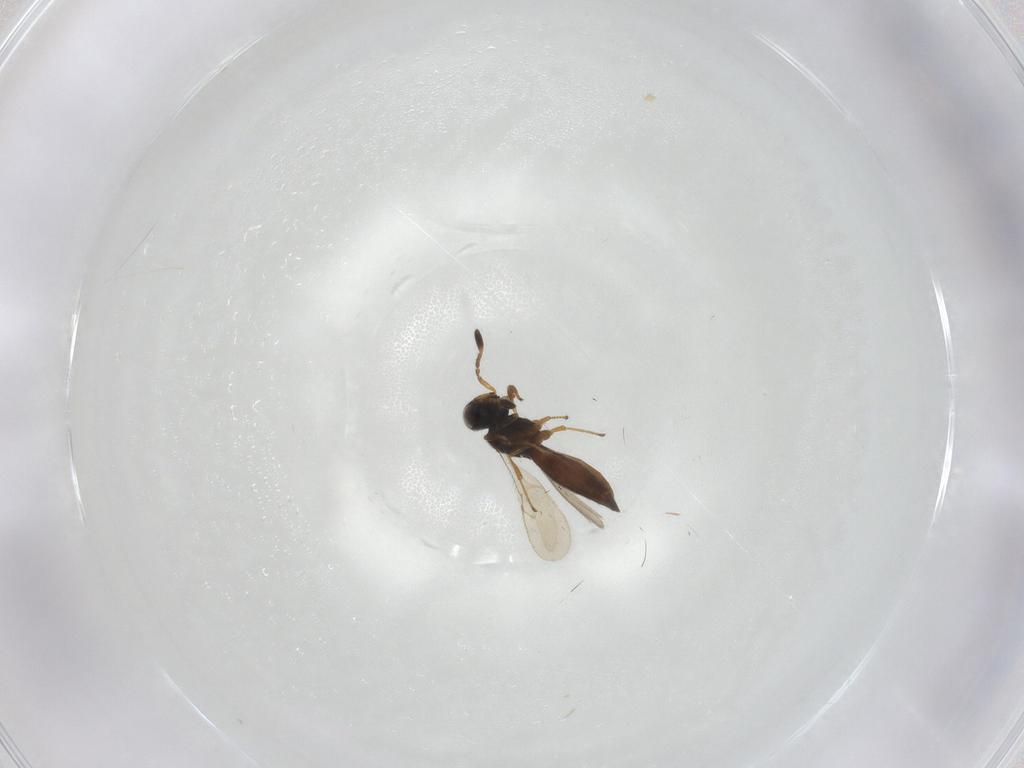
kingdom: Animalia
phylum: Arthropoda
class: Insecta
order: Hymenoptera
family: Scelionidae
